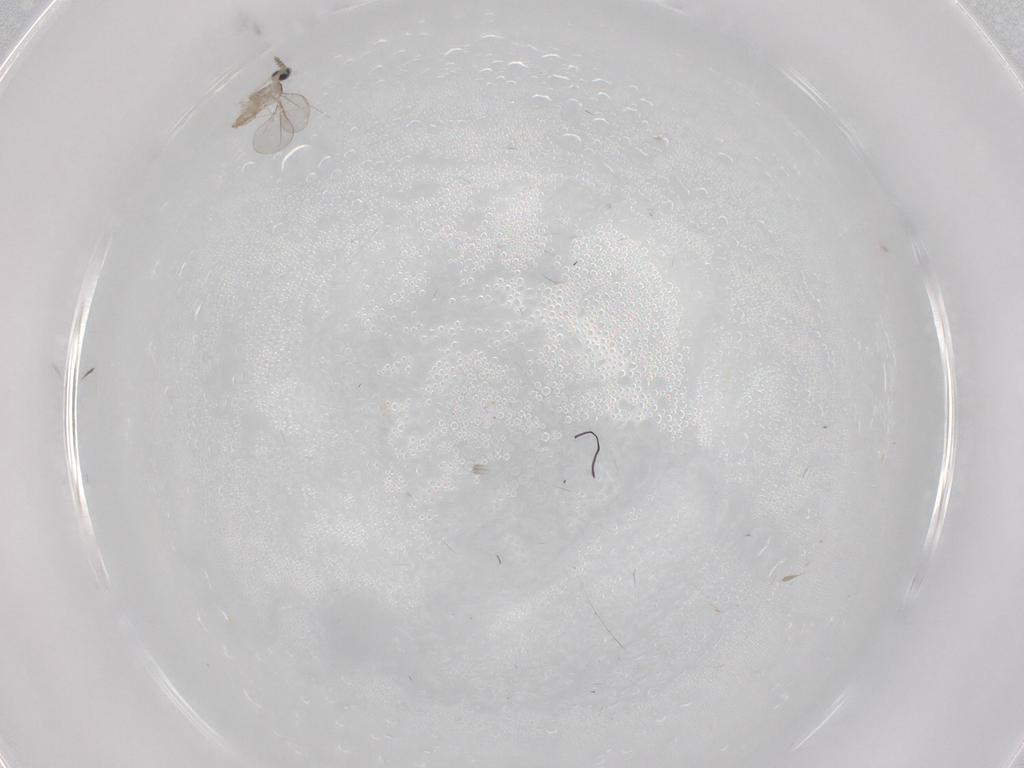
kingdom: Animalia
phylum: Arthropoda
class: Insecta
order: Diptera
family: Cecidomyiidae
